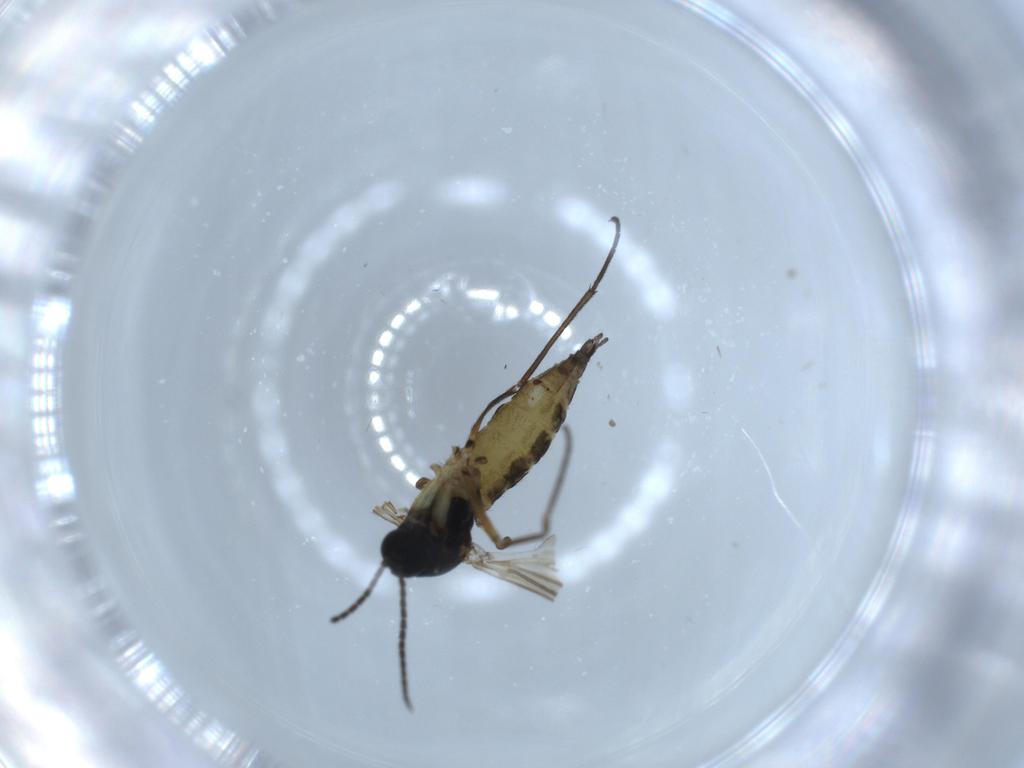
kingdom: Animalia
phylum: Arthropoda
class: Insecta
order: Diptera
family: Sciaridae
